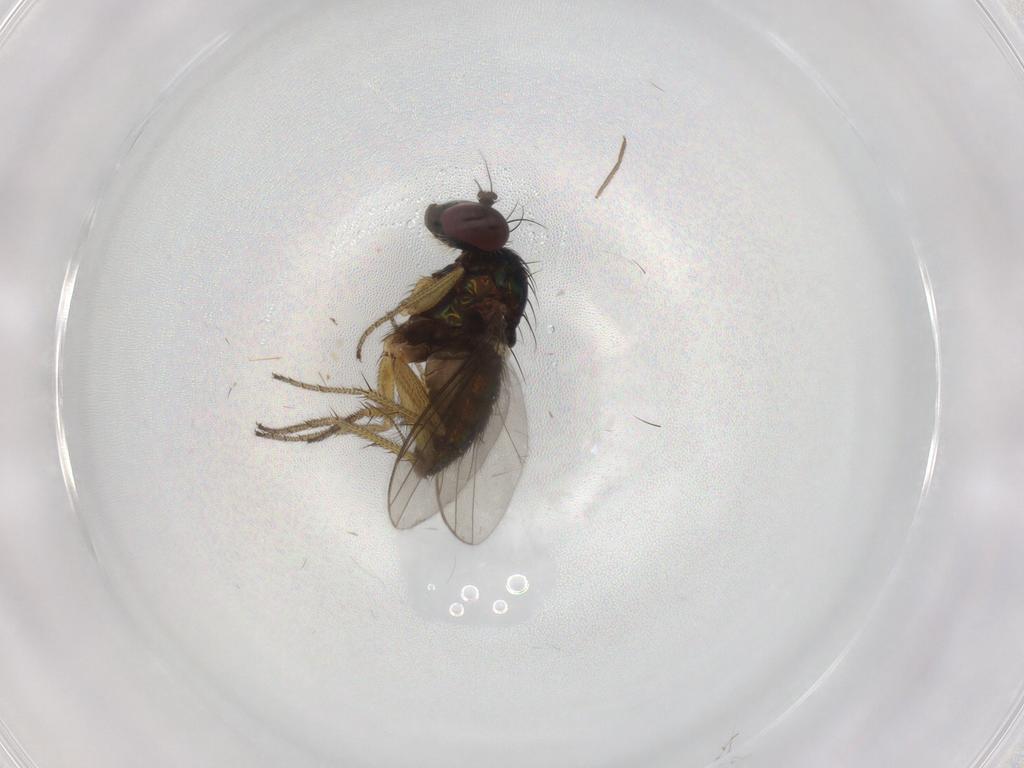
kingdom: Animalia
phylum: Arthropoda
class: Insecta
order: Diptera
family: Dolichopodidae
